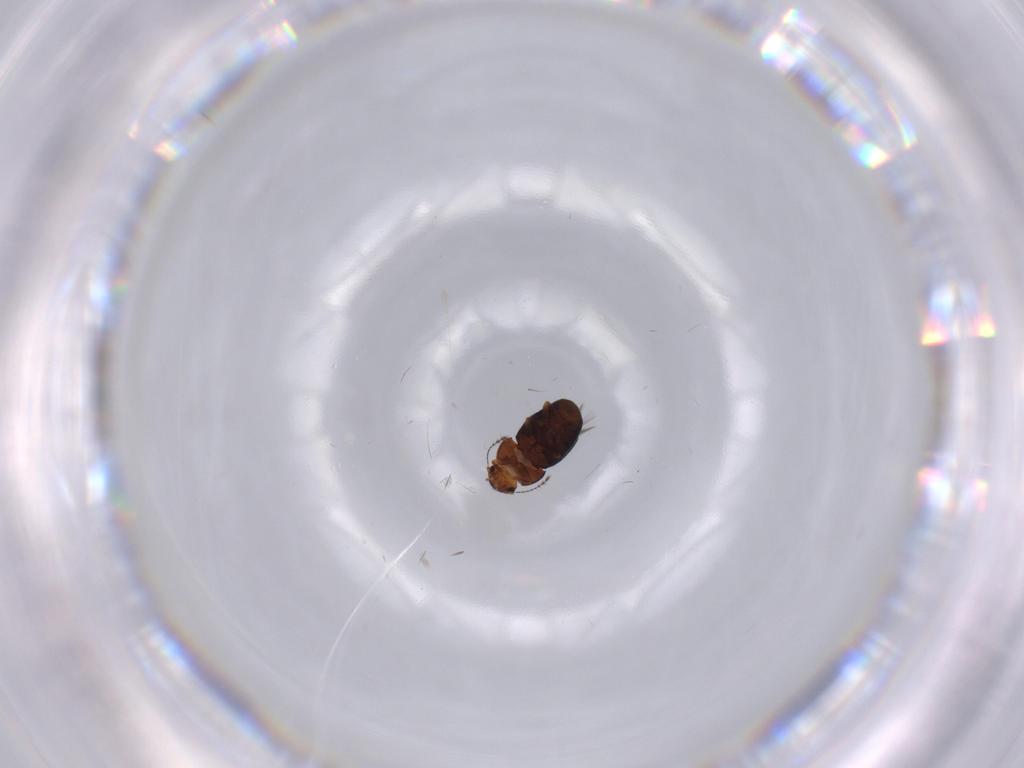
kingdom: Animalia
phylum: Arthropoda
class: Insecta
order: Coleoptera
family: Ptiliidae
